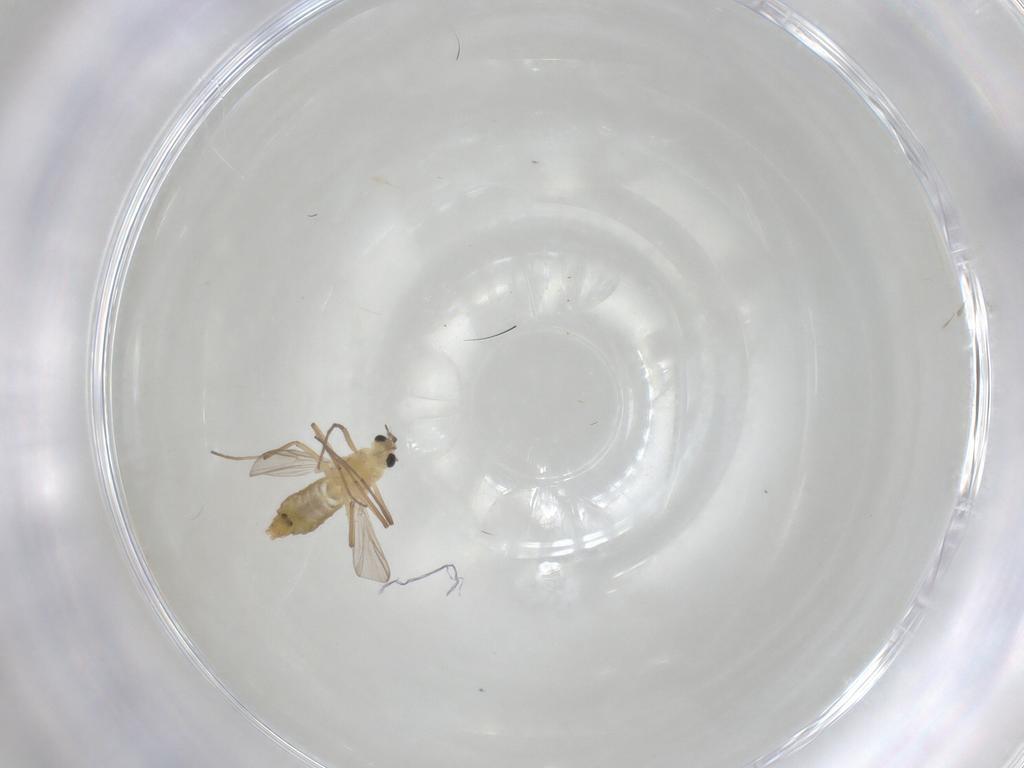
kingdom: Animalia
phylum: Arthropoda
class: Insecta
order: Diptera
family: Chironomidae
